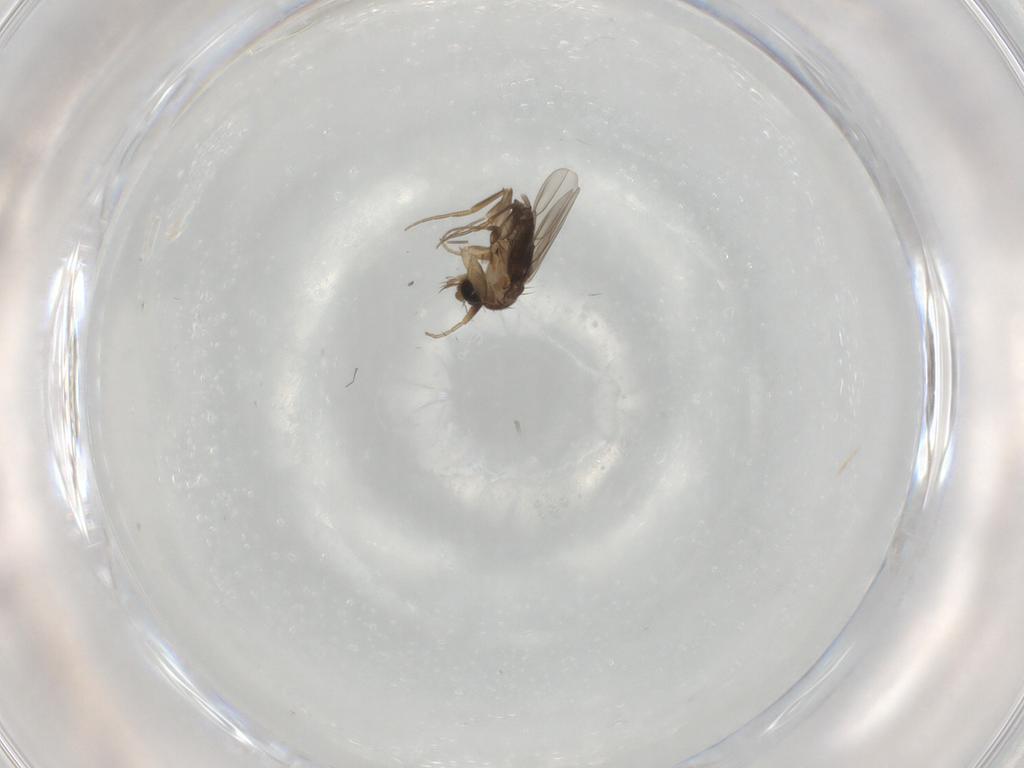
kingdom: Animalia
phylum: Arthropoda
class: Insecta
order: Diptera
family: Phoridae
